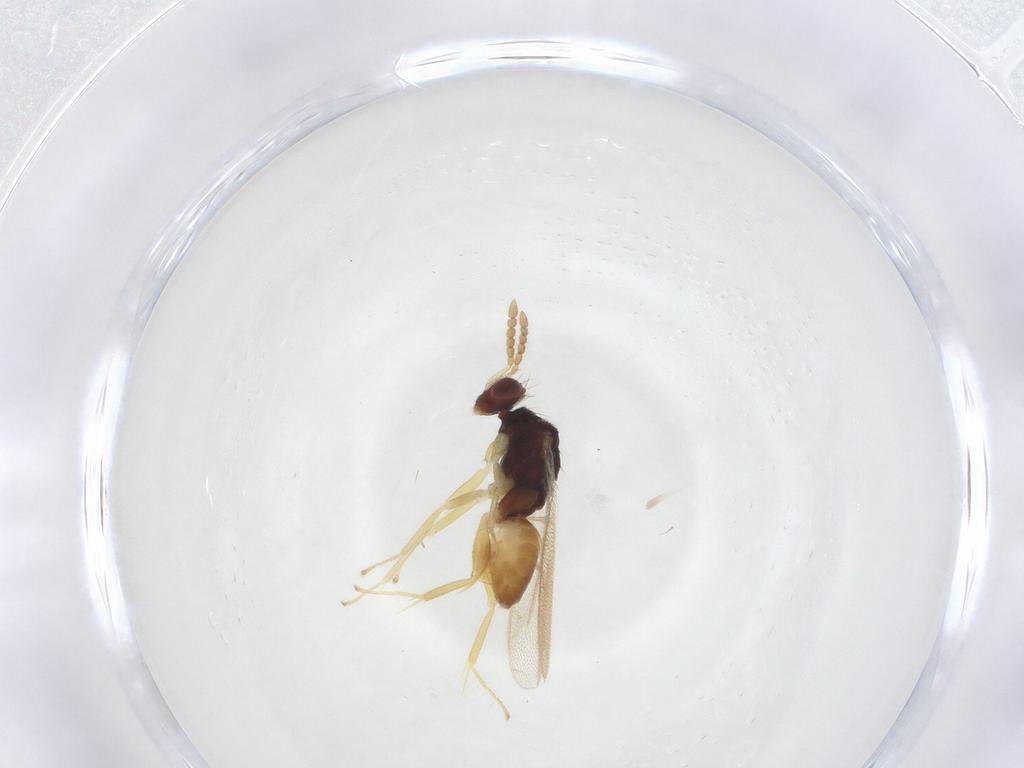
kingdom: Animalia
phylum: Arthropoda
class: Insecta
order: Hymenoptera
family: Eulophidae
